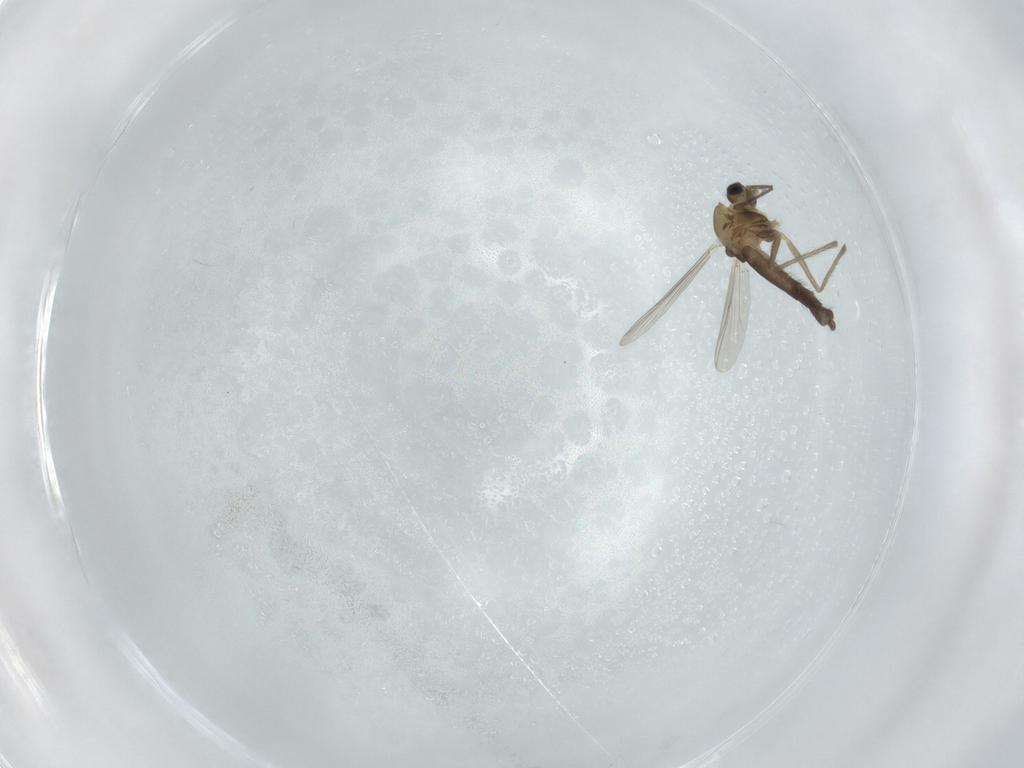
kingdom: Animalia
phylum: Arthropoda
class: Insecta
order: Diptera
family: Chironomidae
